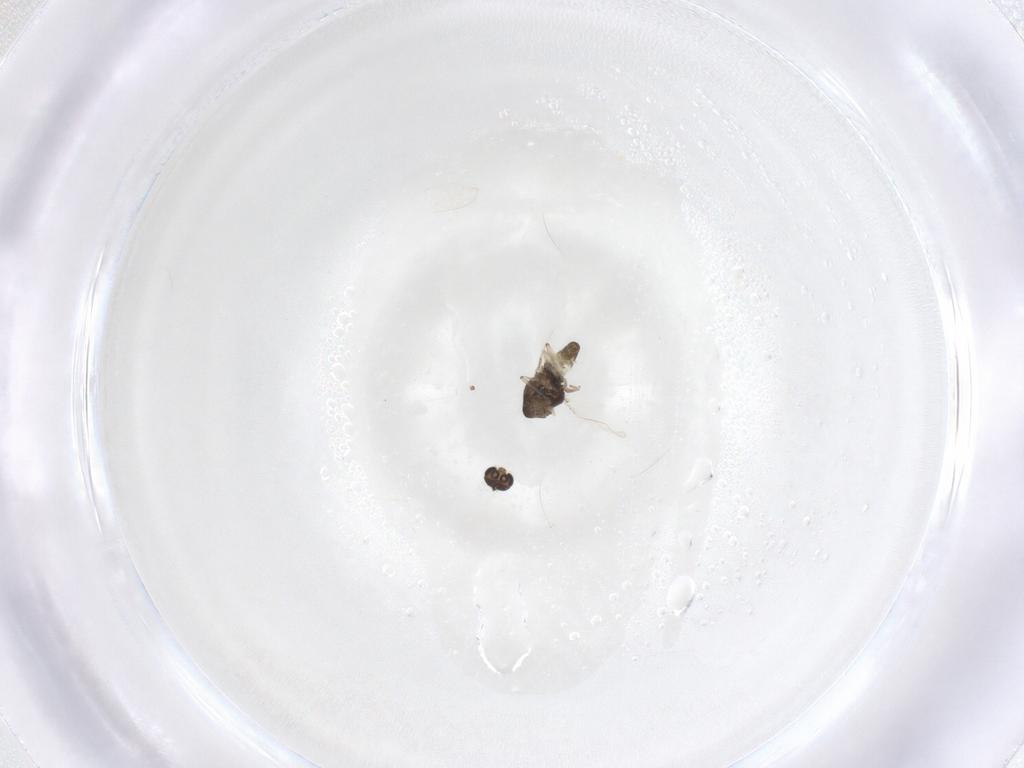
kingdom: Animalia
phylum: Arthropoda
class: Insecta
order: Diptera
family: Chironomidae
